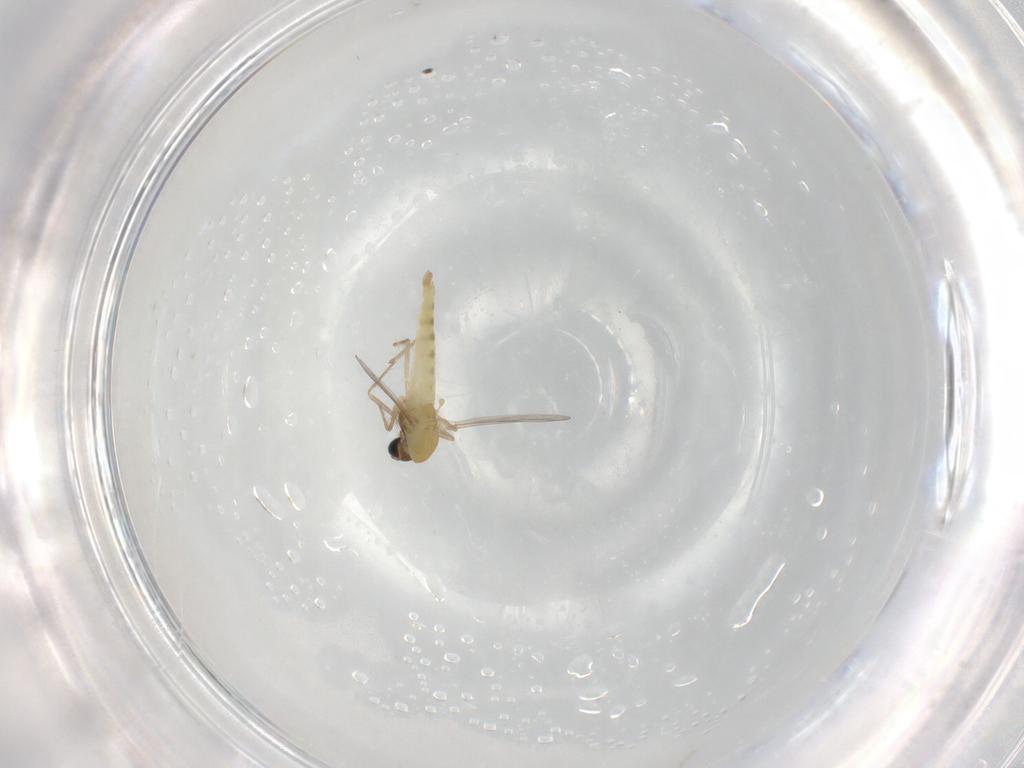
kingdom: Animalia
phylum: Arthropoda
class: Insecta
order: Diptera
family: Chironomidae
